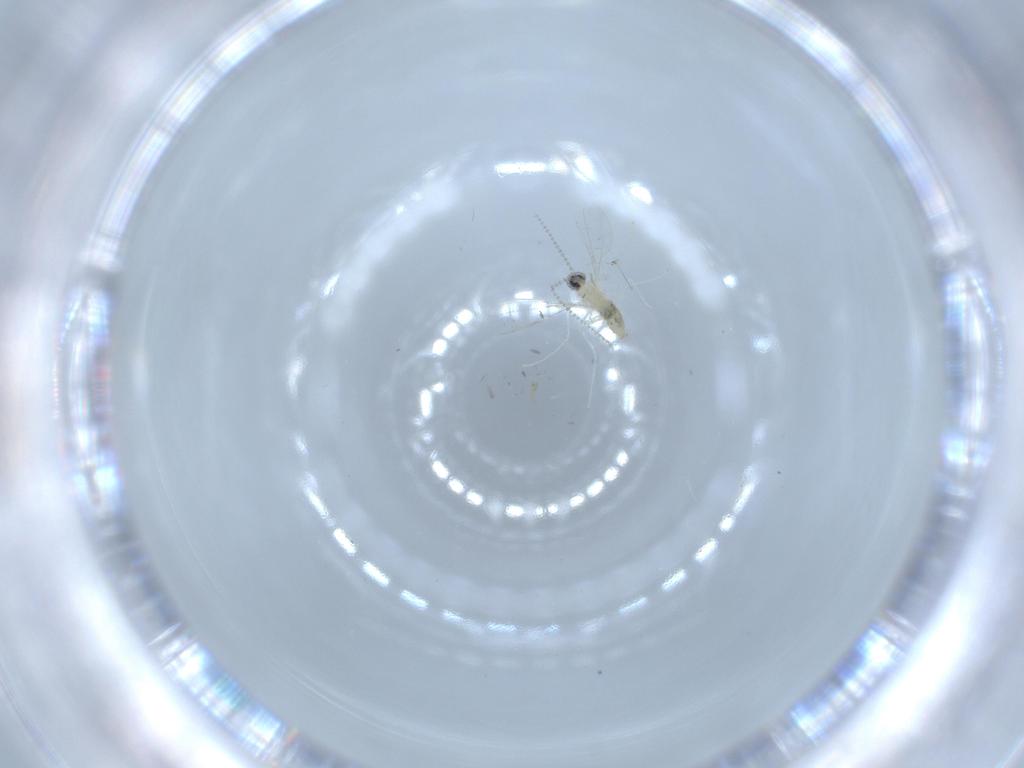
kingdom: Animalia
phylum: Arthropoda
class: Insecta
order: Diptera
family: Cecidomyiidae
